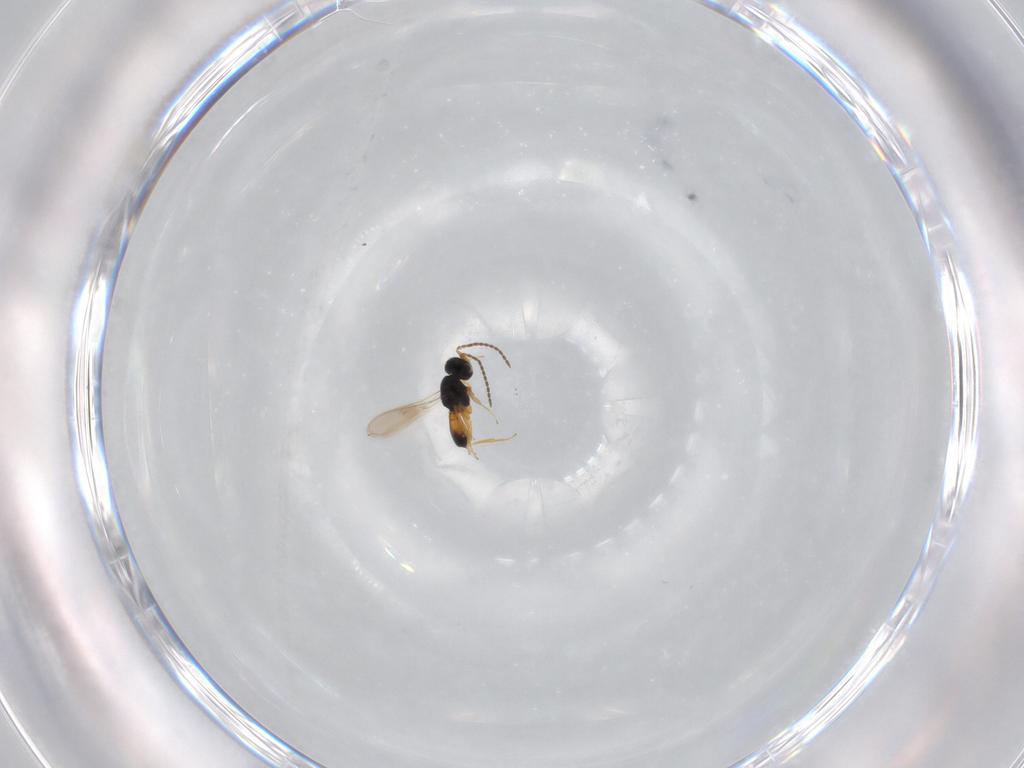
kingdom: Animalia
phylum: Arthropoda
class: Insecta
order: Hymenoptera
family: Scelionidae
